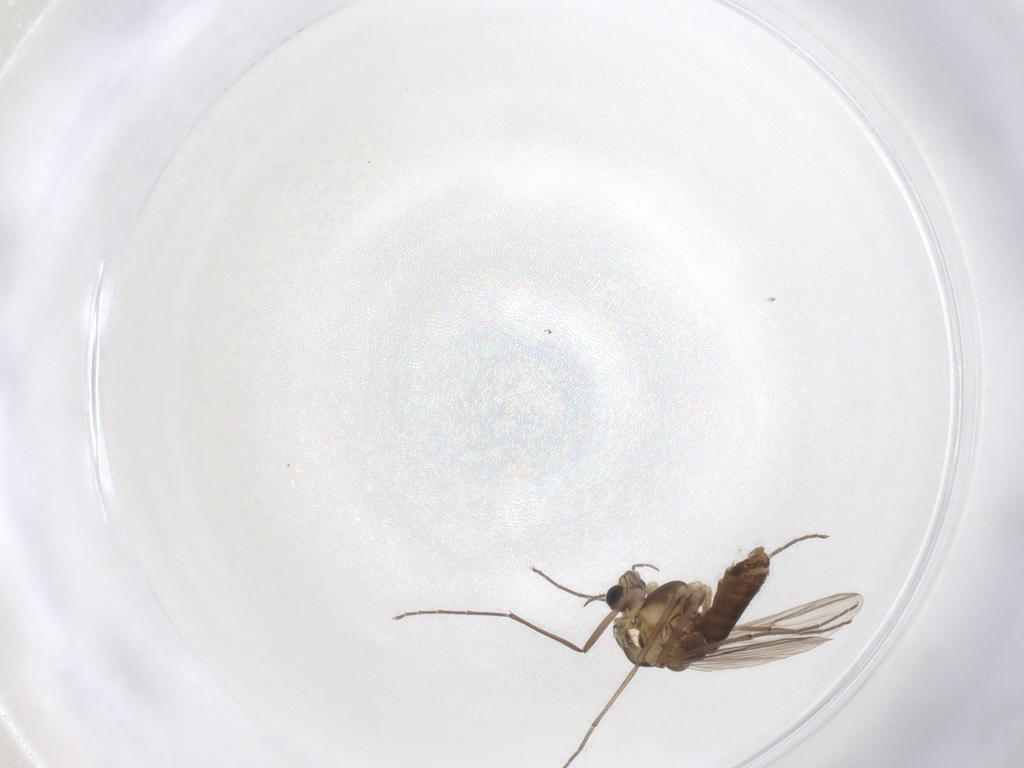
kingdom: Animalia
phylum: Arthropoda
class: Insecta
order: Diptera
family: Chironomidae
